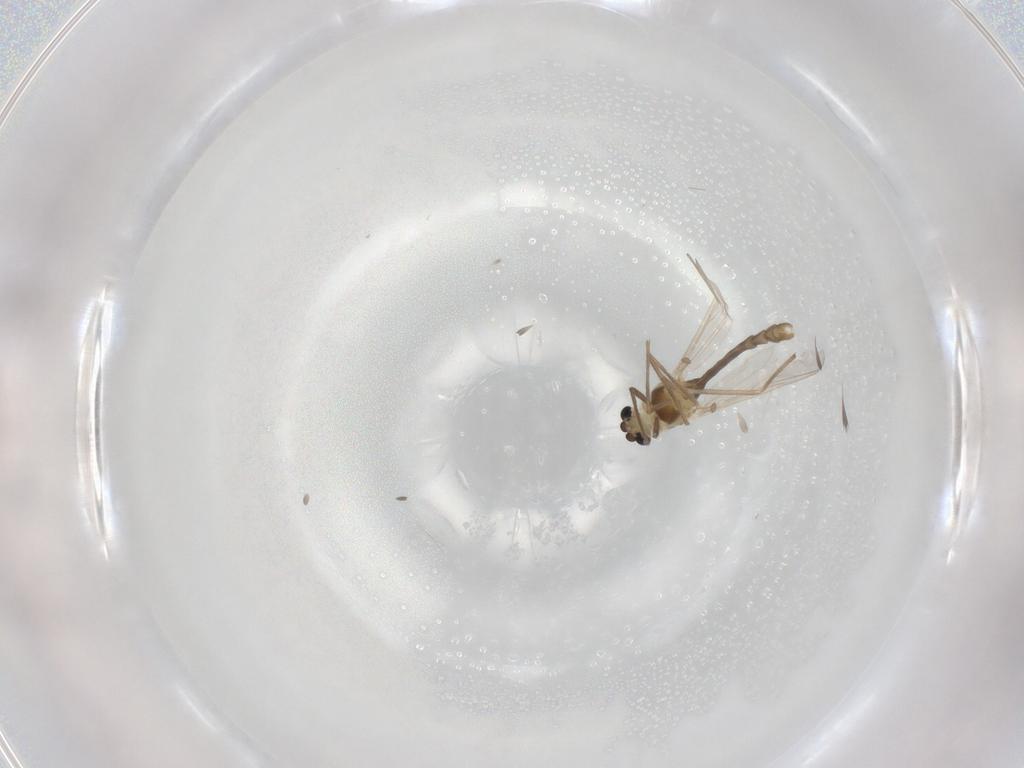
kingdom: Animalia
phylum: Arthropoda
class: Insecta
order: Diptera
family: Chironomidae
